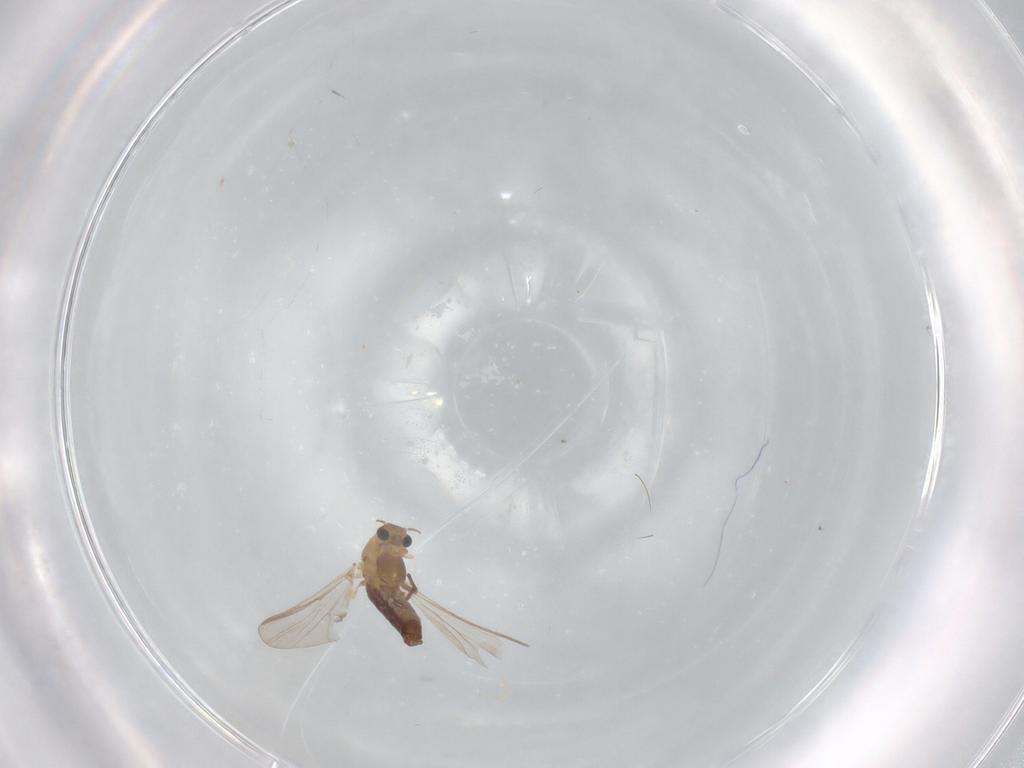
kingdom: Animalia
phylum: Arthropoda
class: Insecta
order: Diptera
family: Chironomidae
